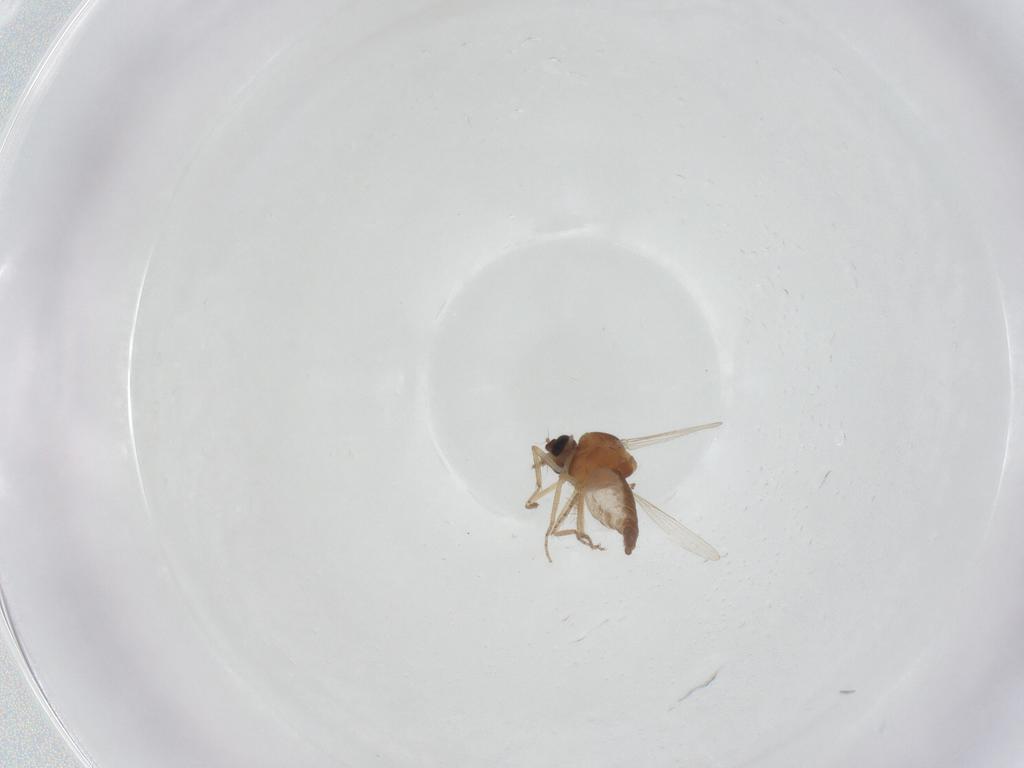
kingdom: Animalia
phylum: Arthropoda
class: Insecta
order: Diptera
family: Ceratopogonidae
